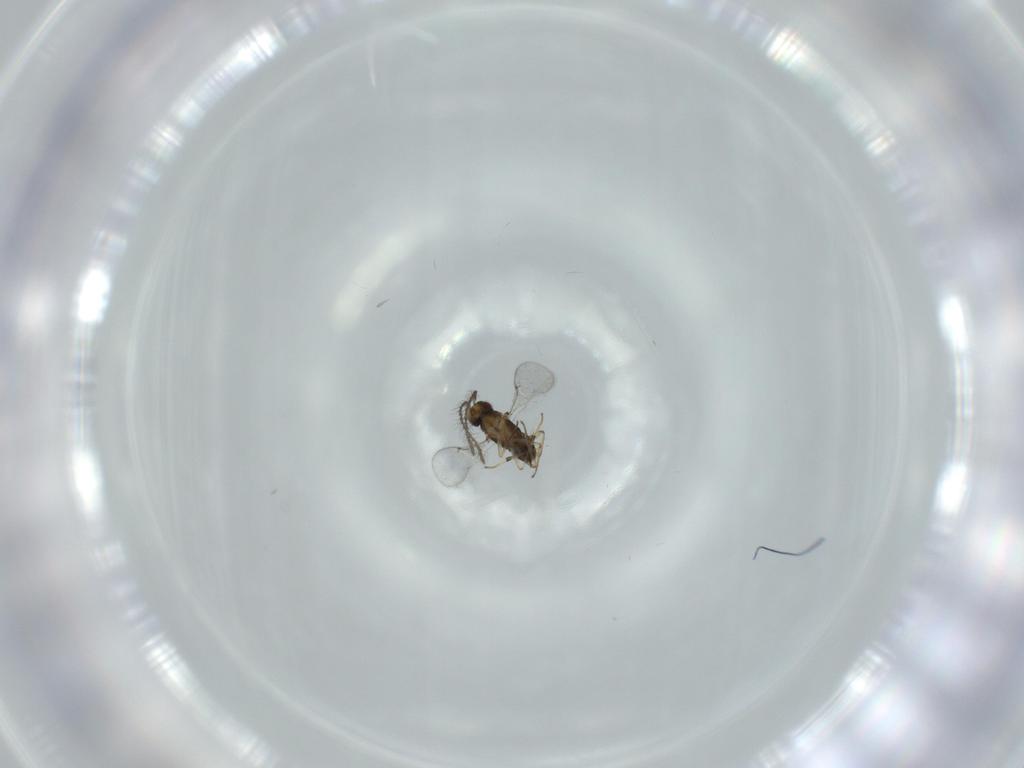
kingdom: Animalia
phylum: Arthropoda
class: Insecta
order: Hymenoptera
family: Encyrtidae
